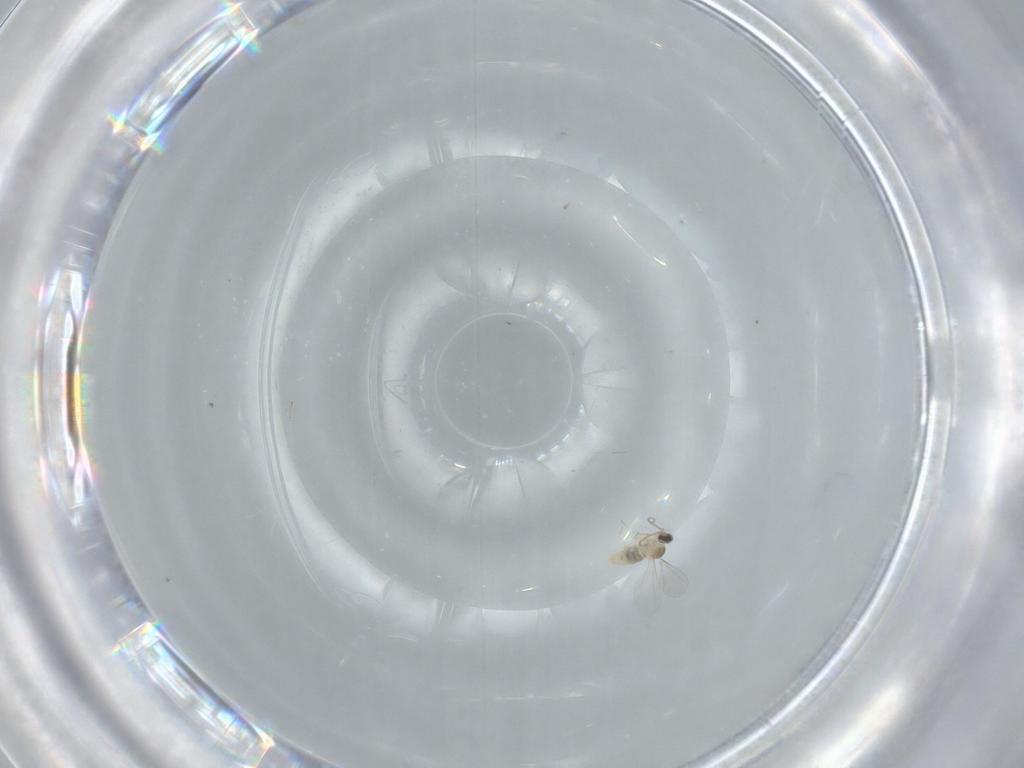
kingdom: Animalia
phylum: Arthropoda
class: Insecta
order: Diptera
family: Cecidomyiidae
